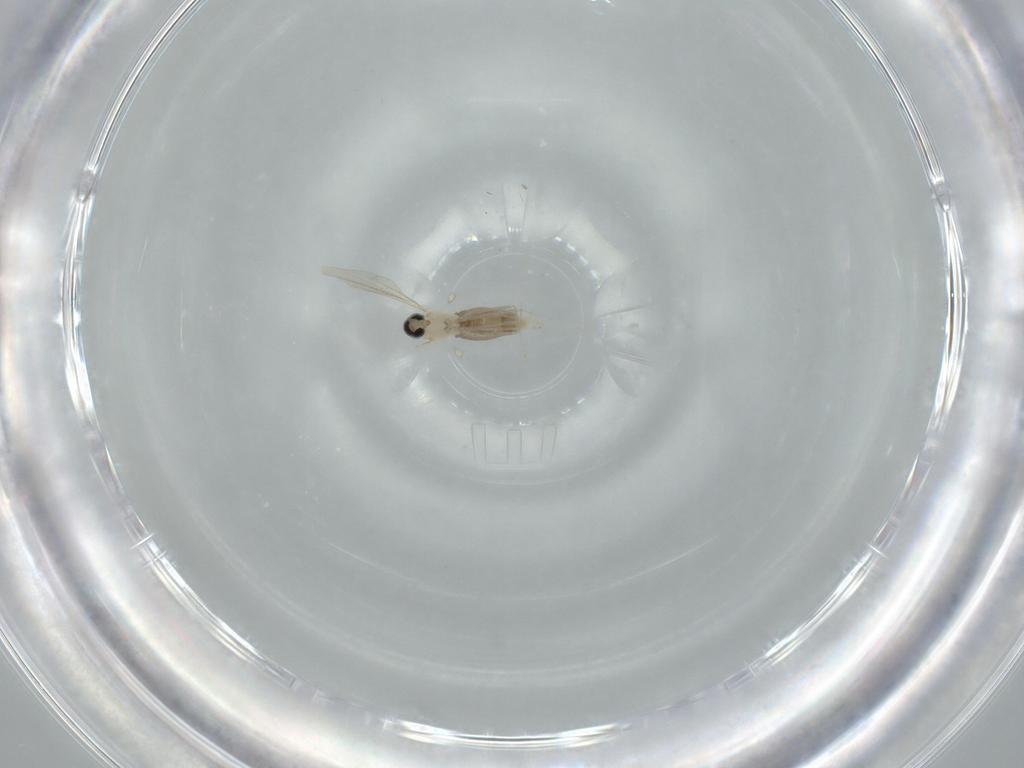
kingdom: Animalia
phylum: Arthropoda
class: Insecta
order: Diptera
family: Cecidomyiidae
